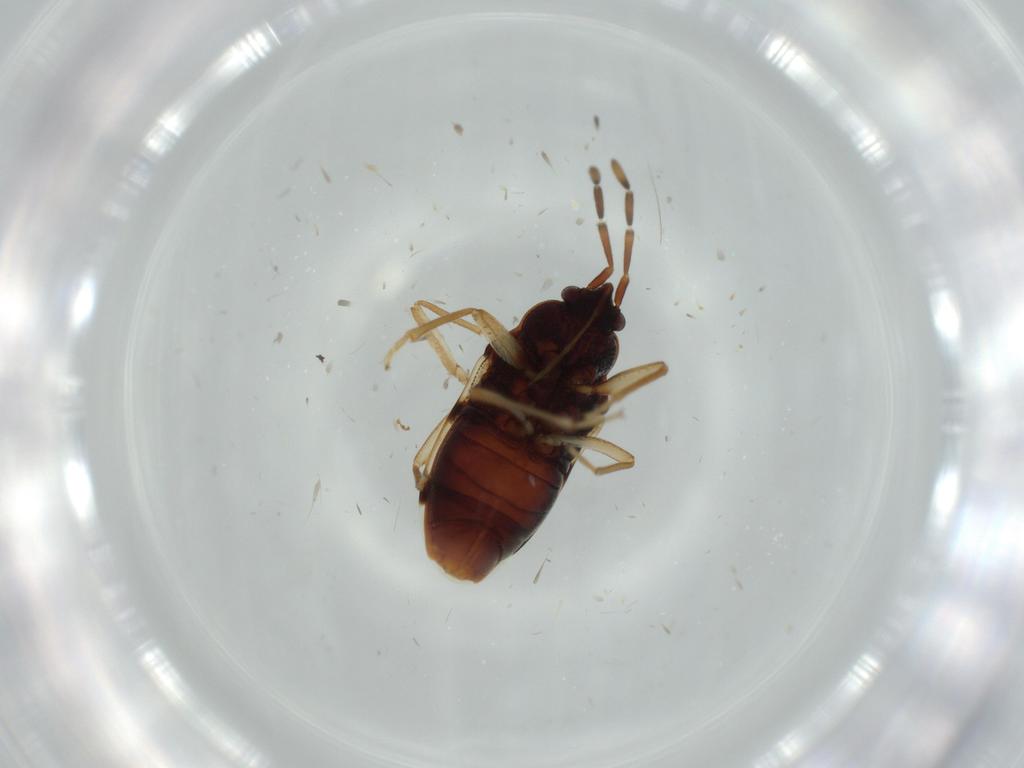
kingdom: Animalia
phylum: Arthropoda
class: Insecta
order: Hemiptera
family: Rhyparochromidae
